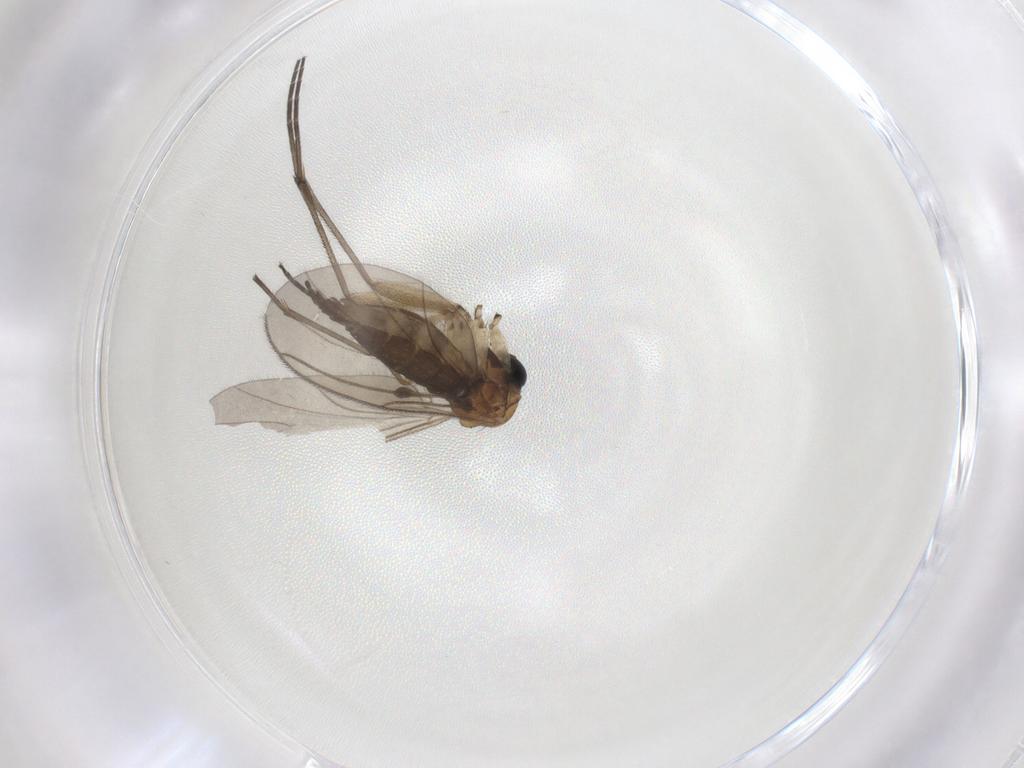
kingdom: Animalia
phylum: Arthropoda
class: Insecta
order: Diptera
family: Sciaridae
